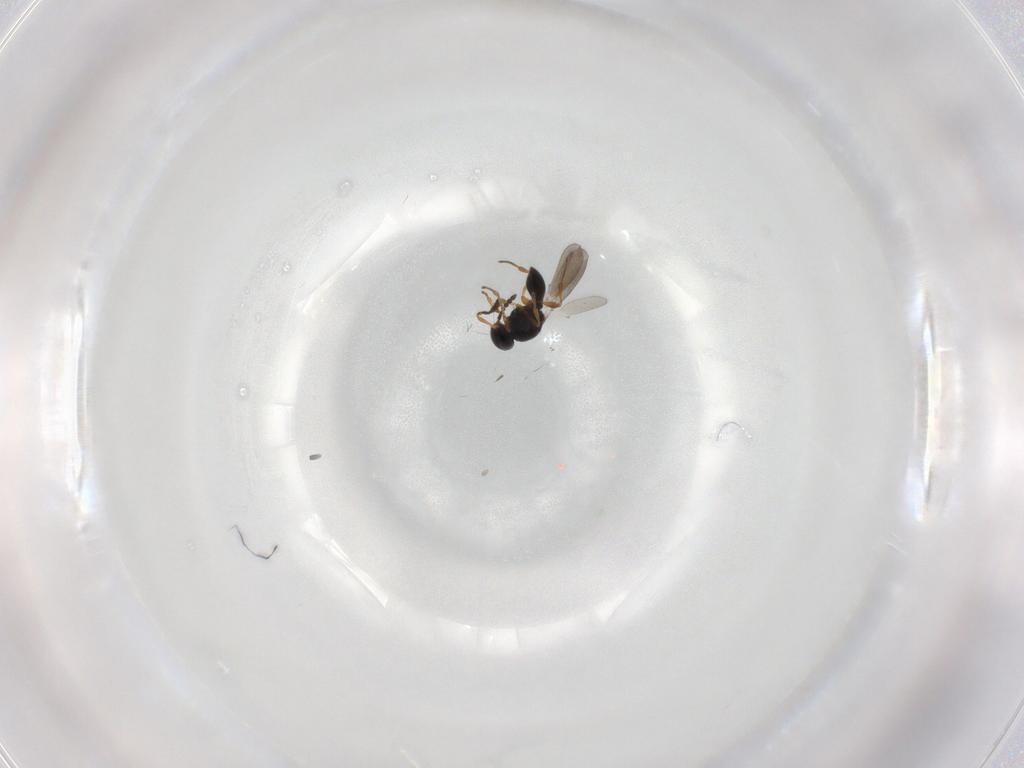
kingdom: Animalia
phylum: Arthropoda
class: Insecta
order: Hymenoptera
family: Platygastridae
